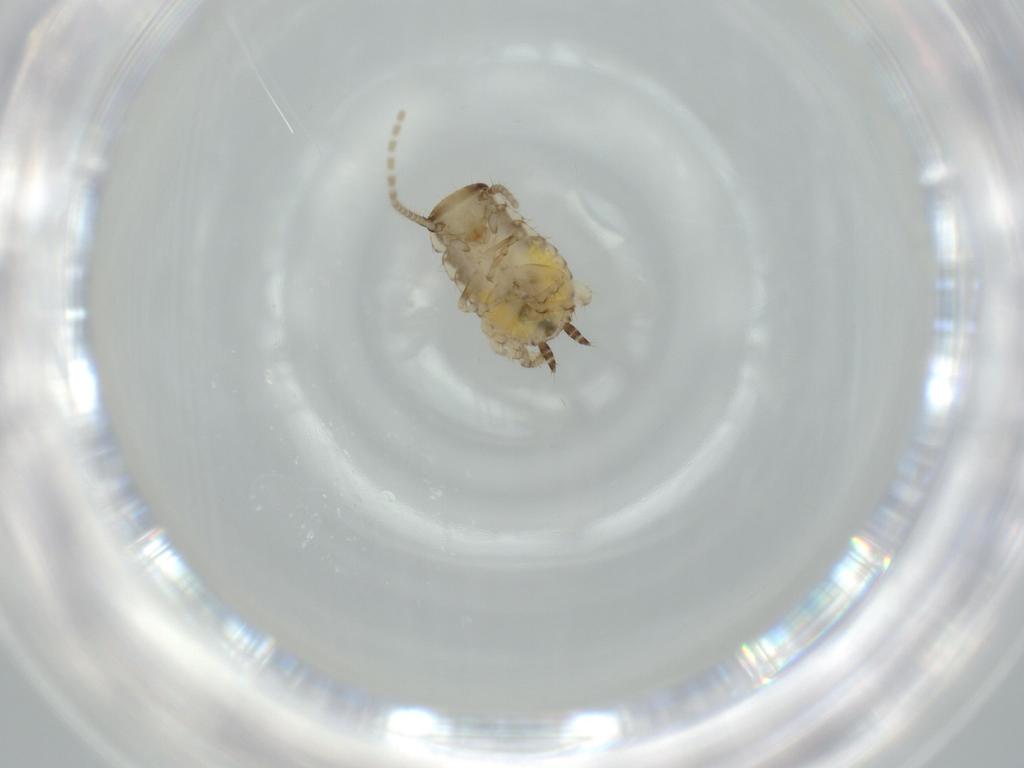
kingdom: Animalia
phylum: Arthropoda
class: Insecta
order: Blattodea
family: Ectobiidae
